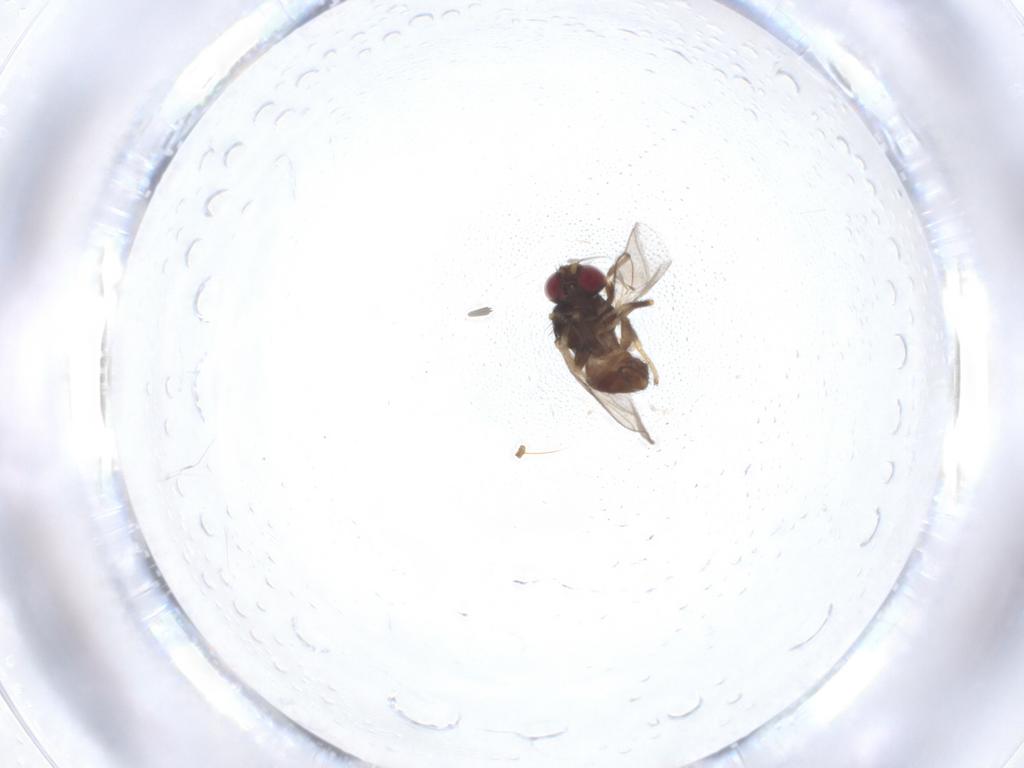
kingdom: Animalia
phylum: Arthropoda
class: Insecta
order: Diptera
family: Chloropidae
